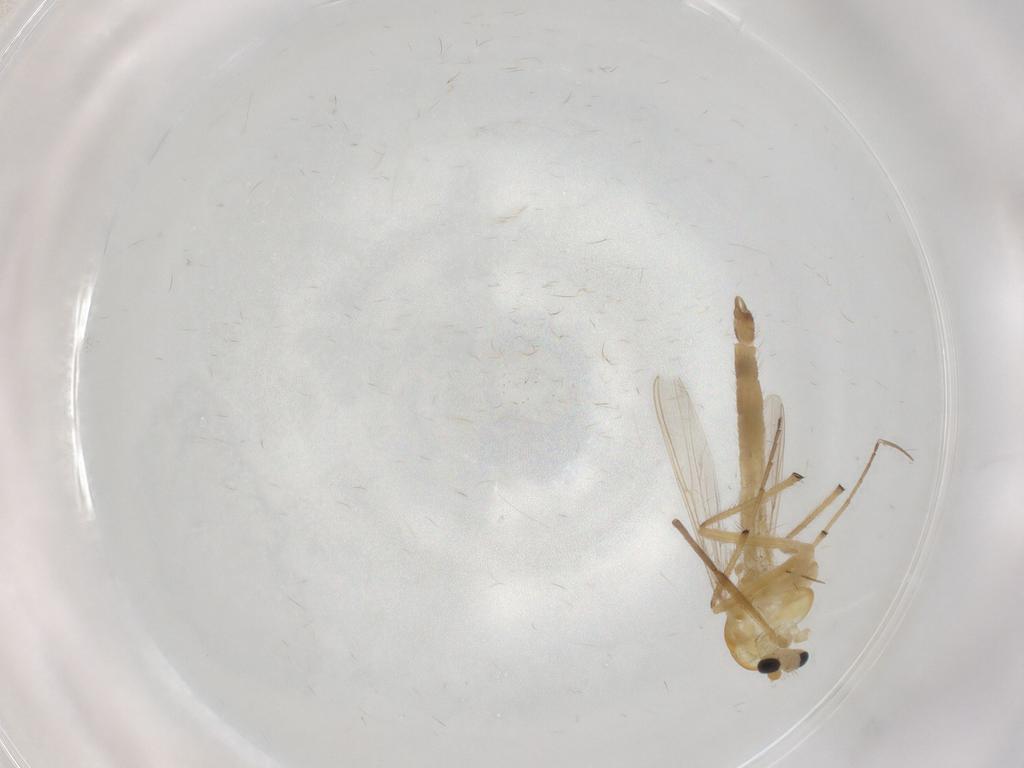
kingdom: Animalia
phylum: Arthropoda
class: Insecta
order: Diptera
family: Chironomidae
